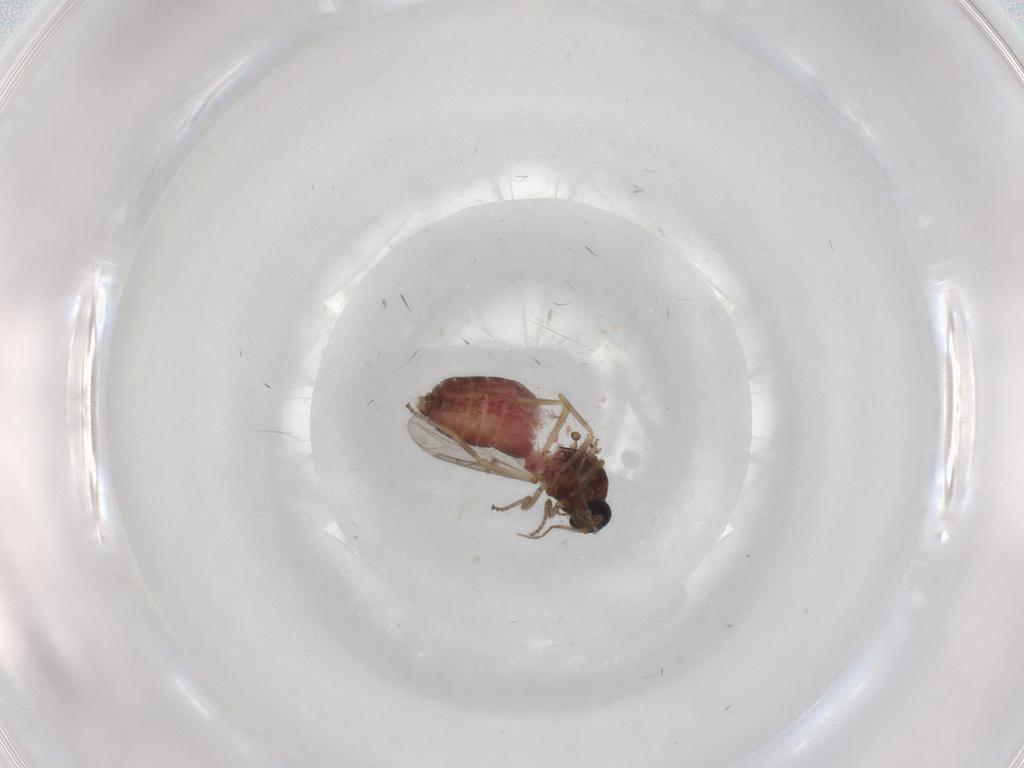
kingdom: Animalia
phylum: Arthropoda
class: Insecta
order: Diptera
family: Ceratopogonidae
